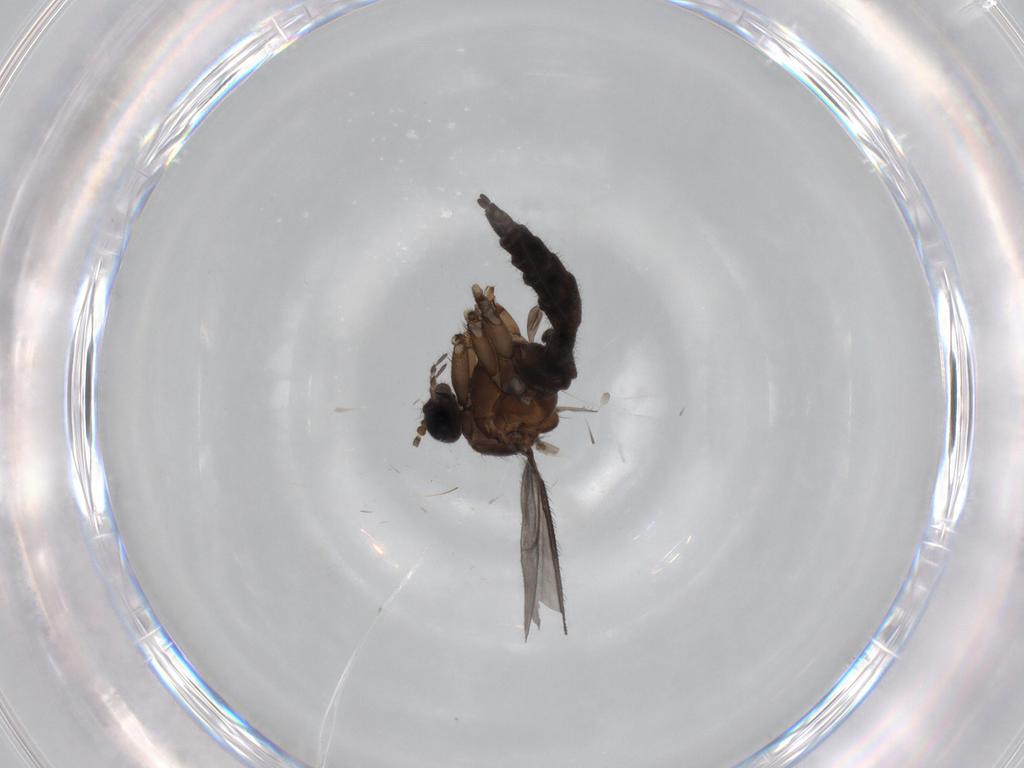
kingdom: Animalia
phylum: Arthropoda
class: Insecta
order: Diptera
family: Sciaridae
